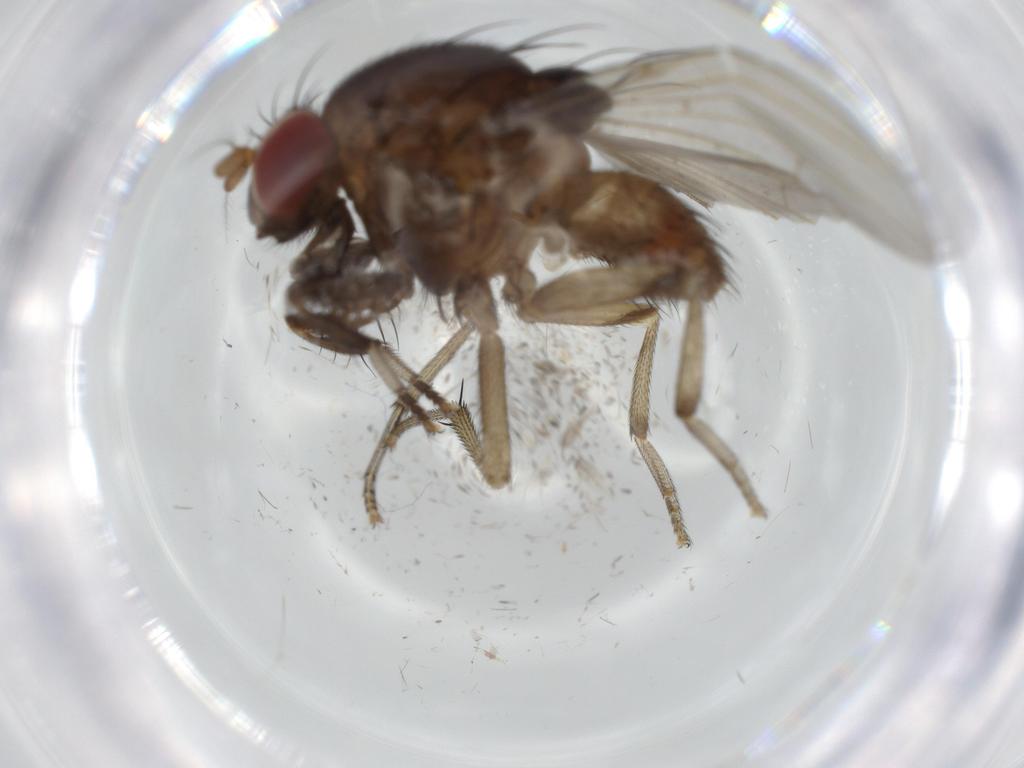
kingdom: Animalia
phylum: Arthropoda
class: Insecta
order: Diptera
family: Cecidomyiidae
